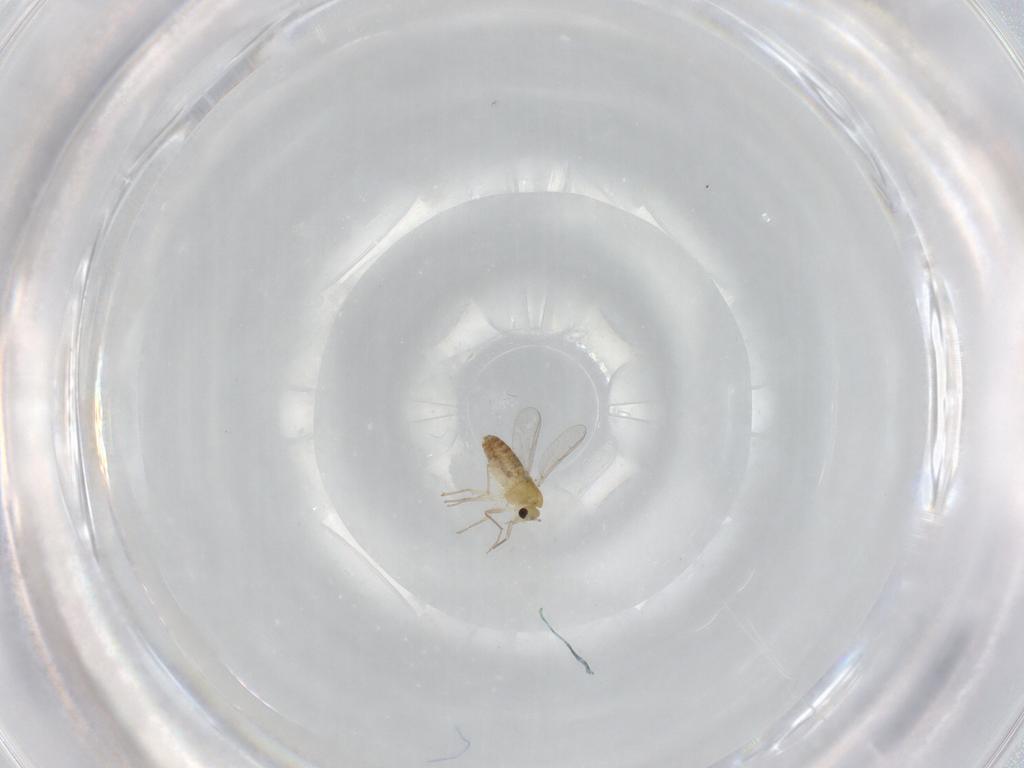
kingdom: Animalia
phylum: Arthropoda
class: Insecta
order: Diptera
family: Chironomidae
